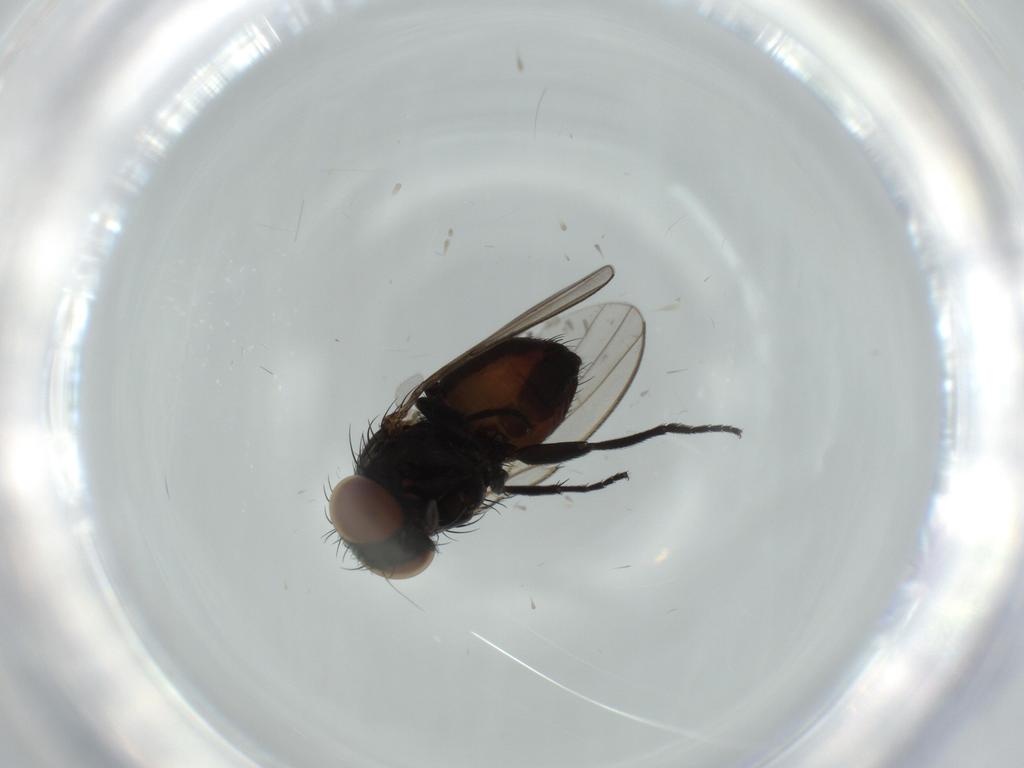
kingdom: Animalia
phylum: Arthropoda
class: Insecta
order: Diptera
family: Milichiidae
